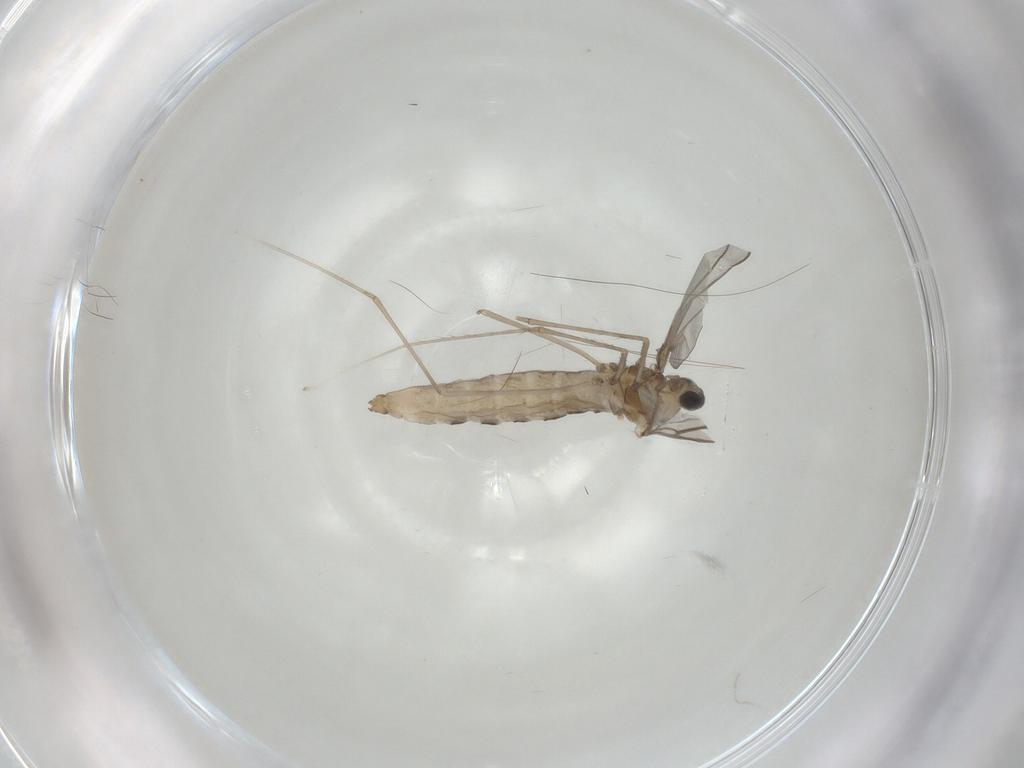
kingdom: Animalia
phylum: Arthropoda
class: Insecta
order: Diptera
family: Cecidomyiidae
